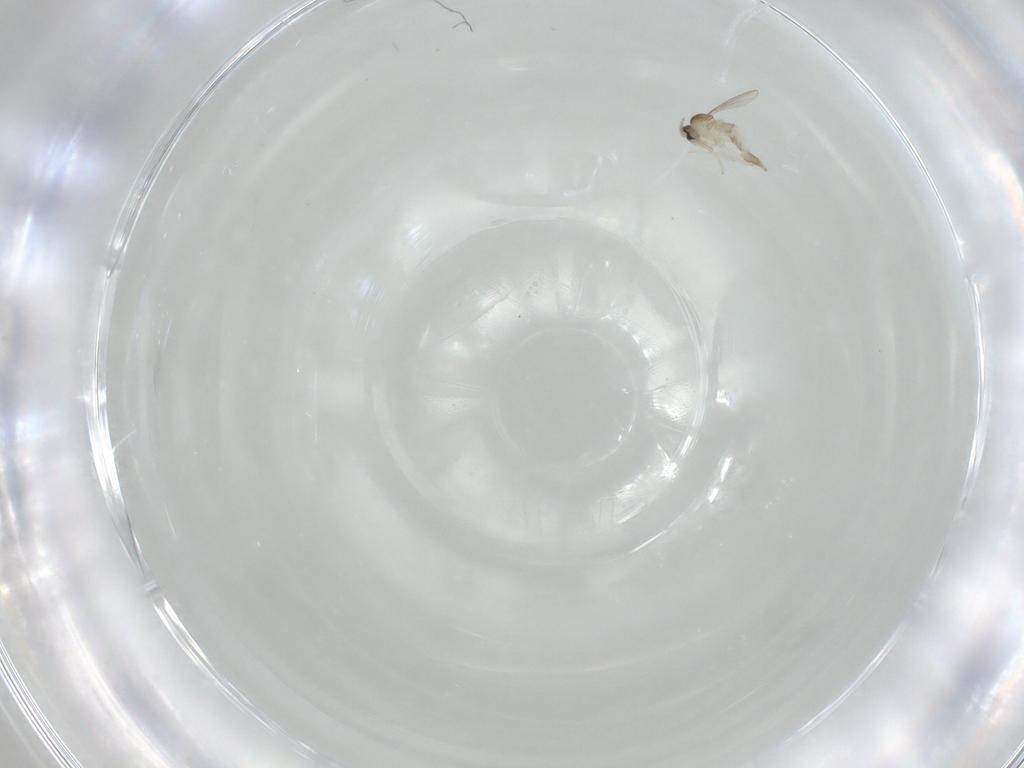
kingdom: Animalia
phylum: Arthropoda
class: Insecta
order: Diptera
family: Cecidomyiidae
